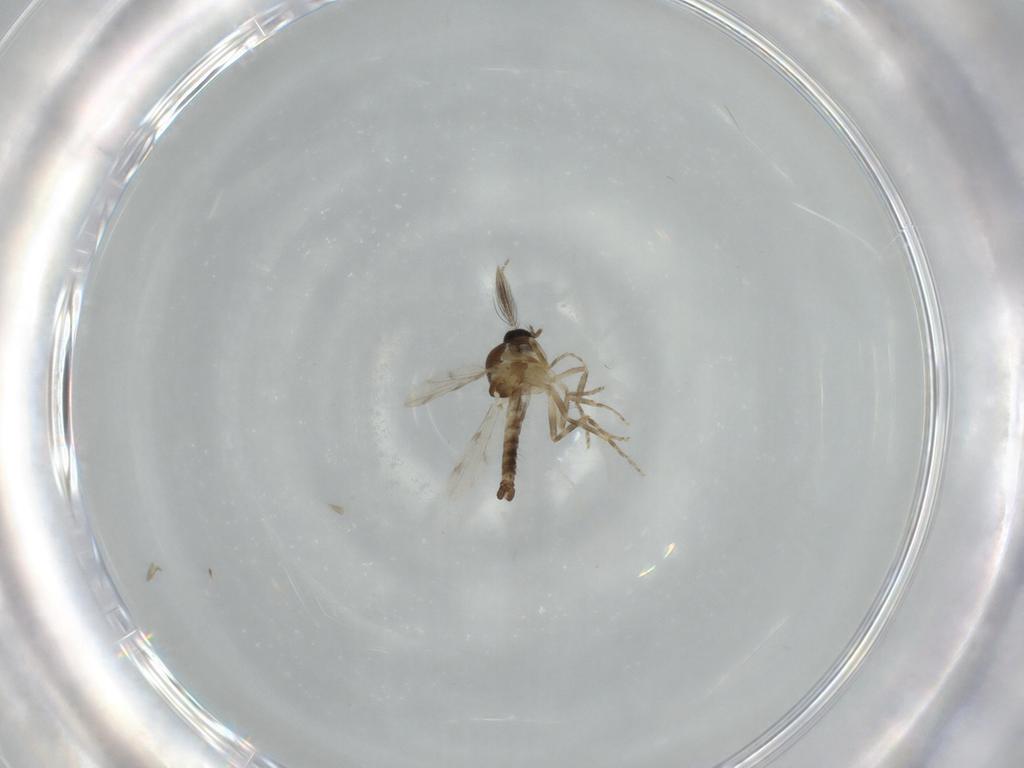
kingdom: Animalia
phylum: Arthropoda
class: Insecta
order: Diptera
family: Ceratopogonidae
